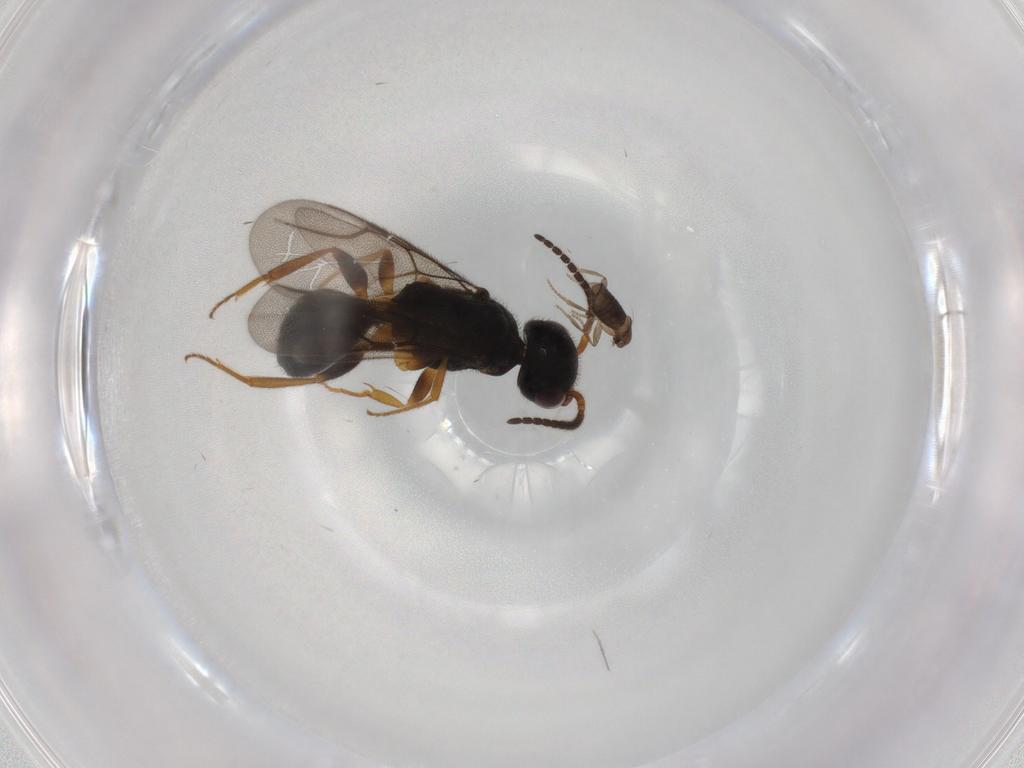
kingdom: Animalia
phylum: Arthropoda
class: Insecta
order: Diptera
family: Phoridae
